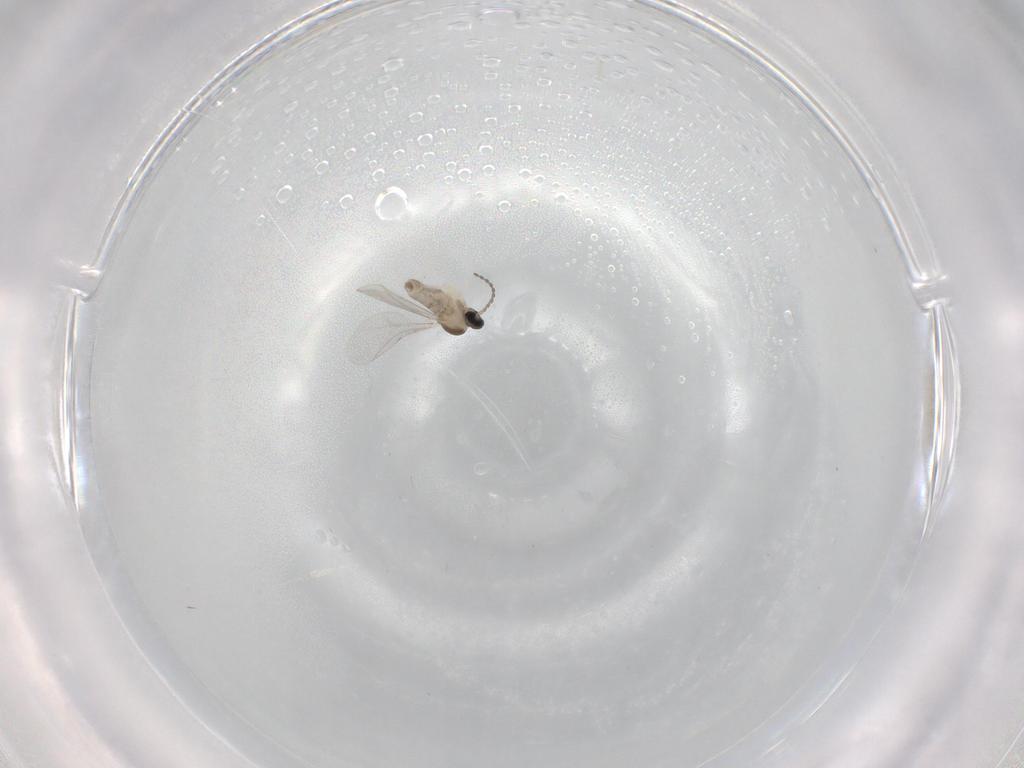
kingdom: Animalia
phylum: Arthropoda
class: Insecta
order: Diptera
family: Cecidomyiidae
